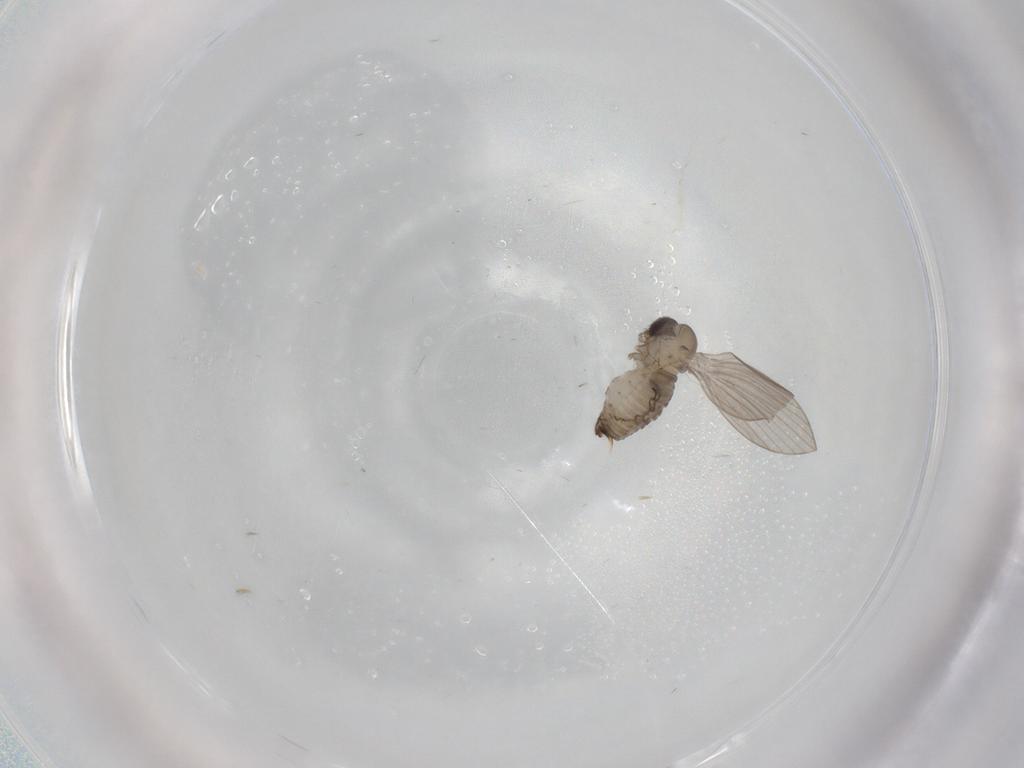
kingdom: Animalia
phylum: Arthropoda
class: Insecta
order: Diptera
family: Psychodidae
